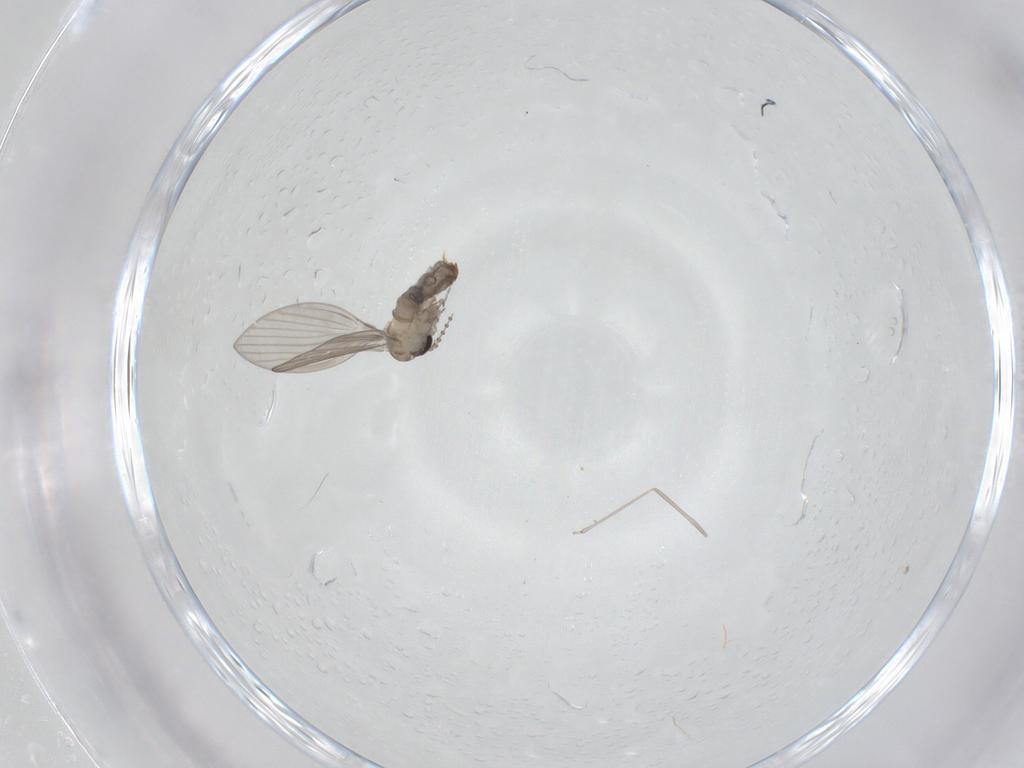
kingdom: Animalia
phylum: Arthropoda
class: Insecta
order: Diptera
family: Psychodidae
